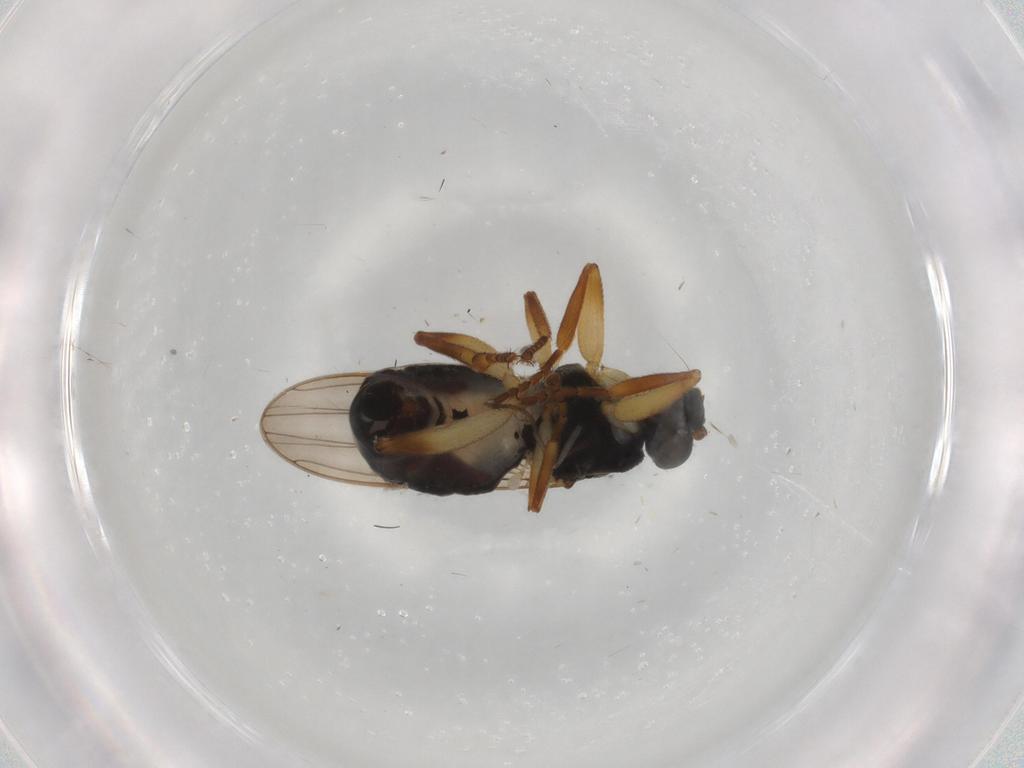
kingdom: Animalia
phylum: Arthropoda
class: Insecta
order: Diptera
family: Sphaeroceridae
